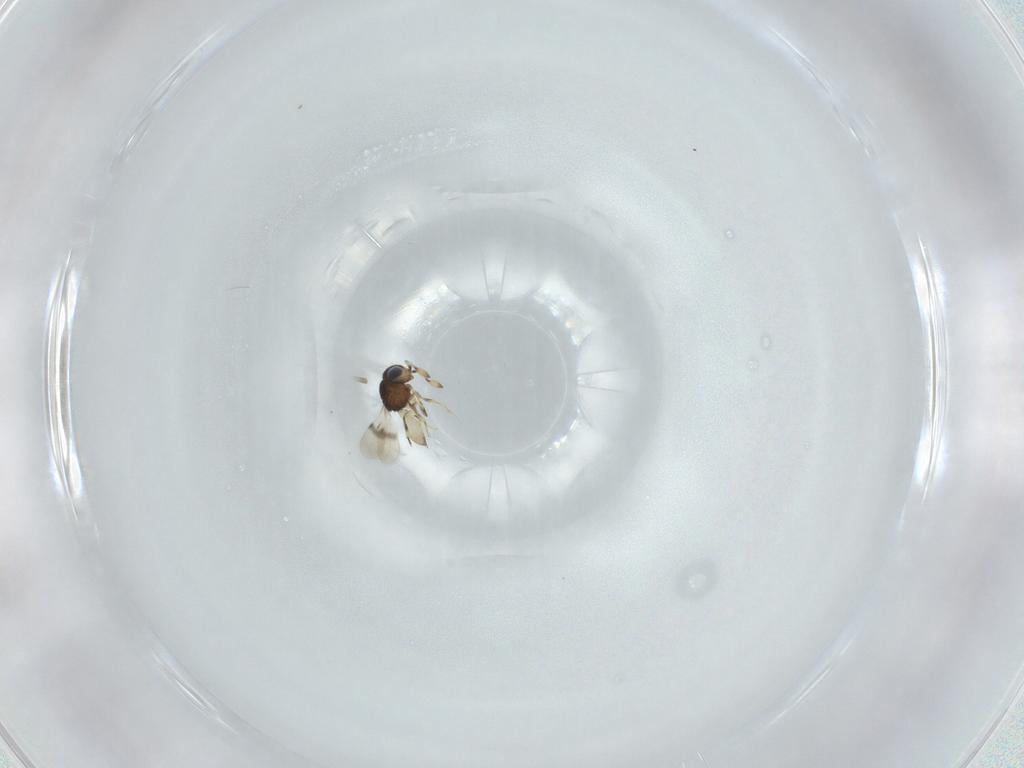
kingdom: Animalia
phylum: Arthropoda
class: Insecta
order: Hymenoptera
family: Scelionidae
